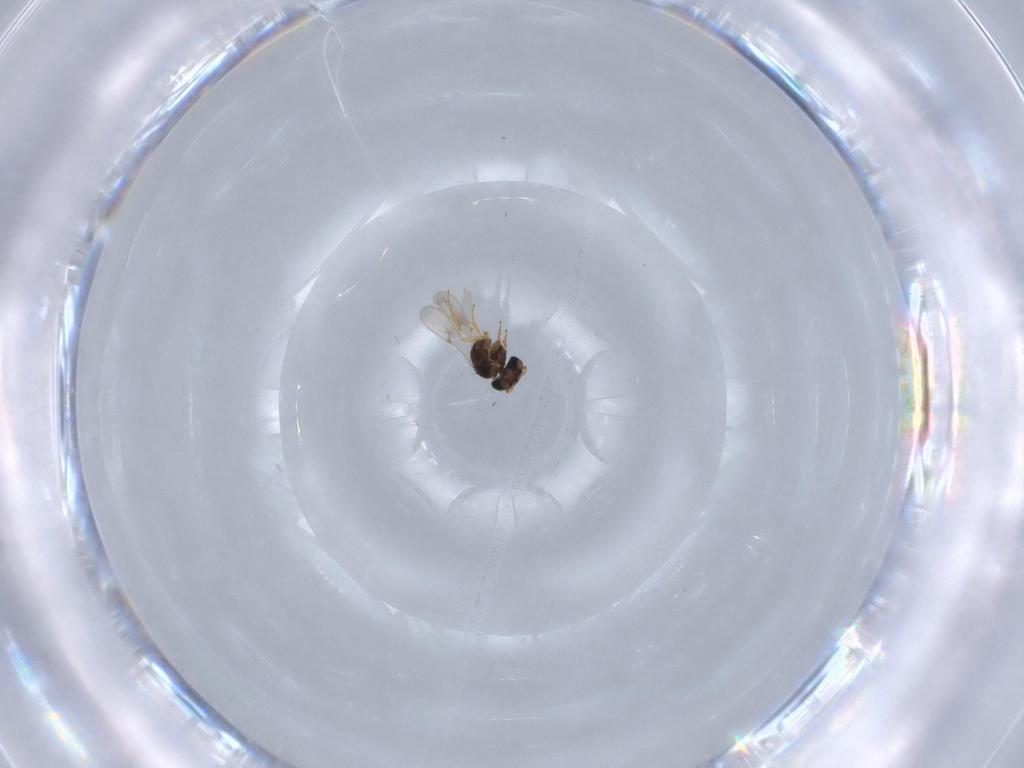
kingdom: Animalia
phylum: Arthropoda
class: Insecta
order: Hymenoptera
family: Scelionidae
